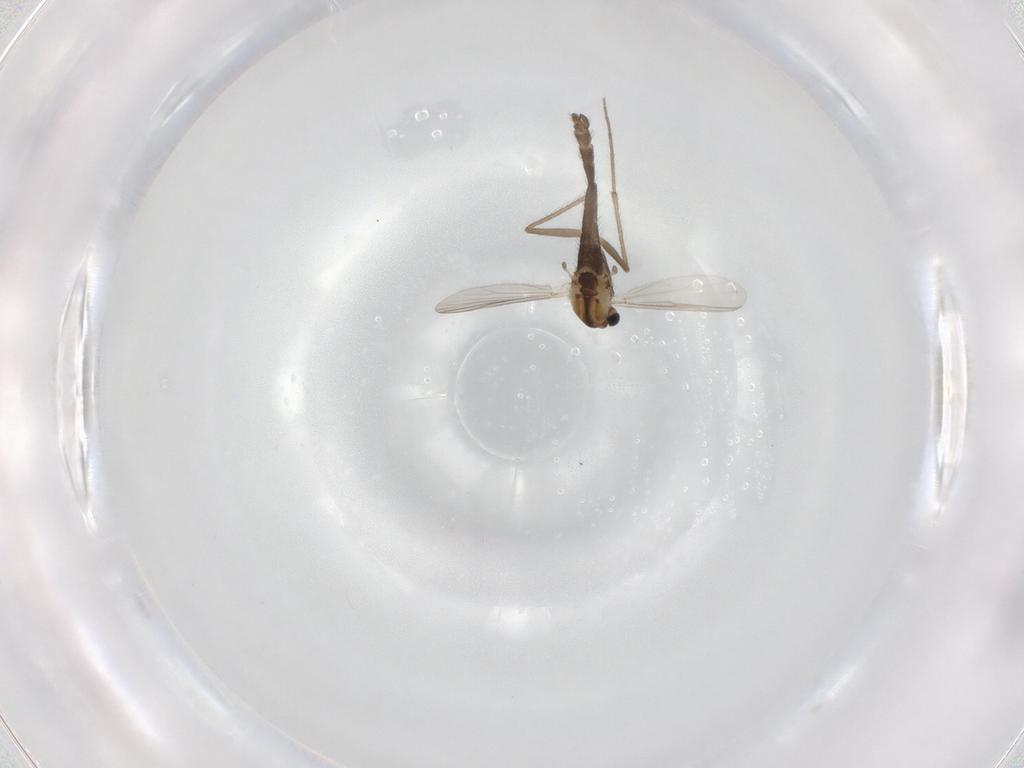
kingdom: Animalia
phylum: Arthropoda
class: Insecta
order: Diptera
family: Chironomidae
